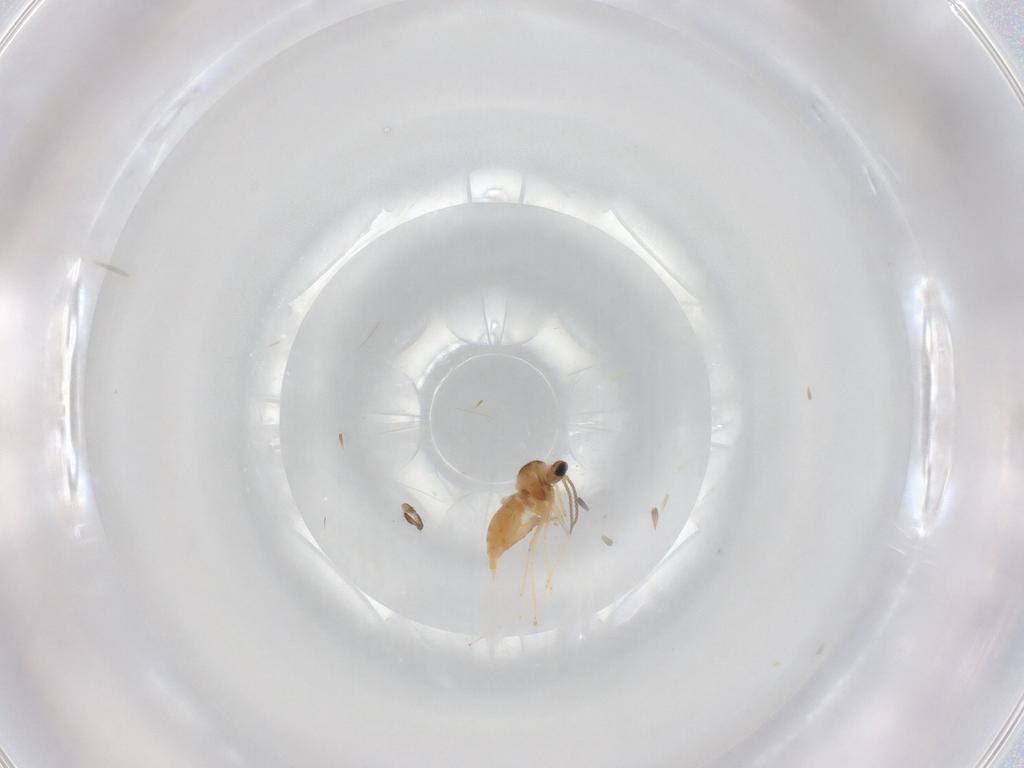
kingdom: Animalia
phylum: Arthropoda
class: Insecta
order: Diptera
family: Sciaridae
